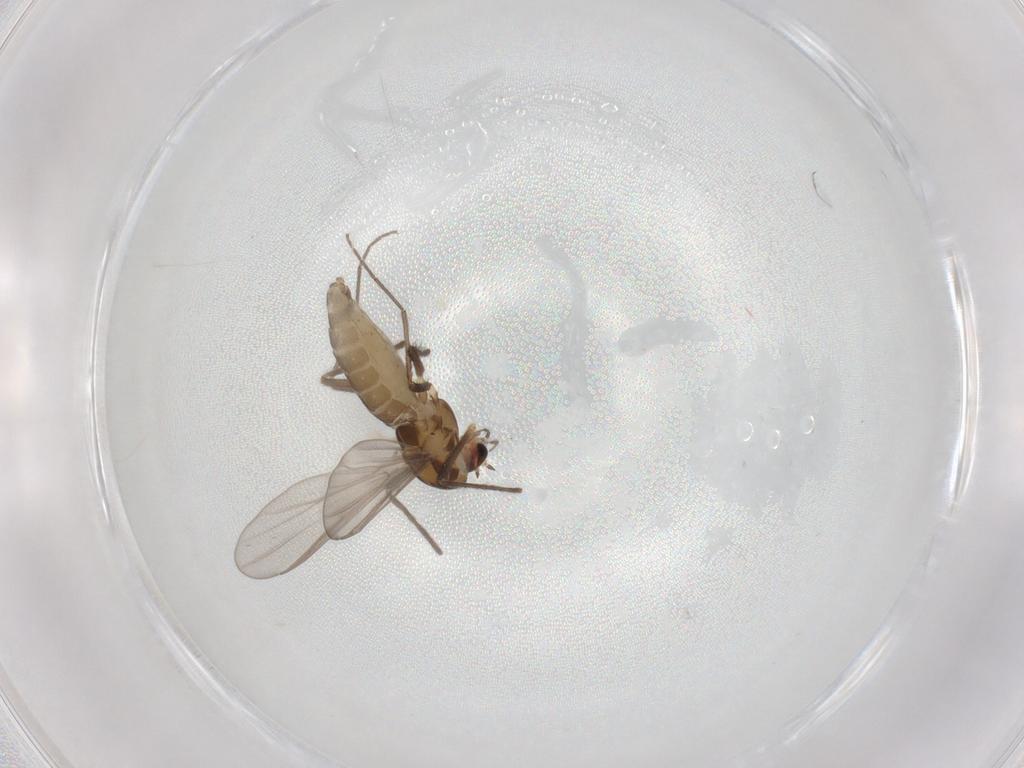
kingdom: Animalia
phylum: Arthropoda
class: Insecta
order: Diptera
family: Chironomidae
